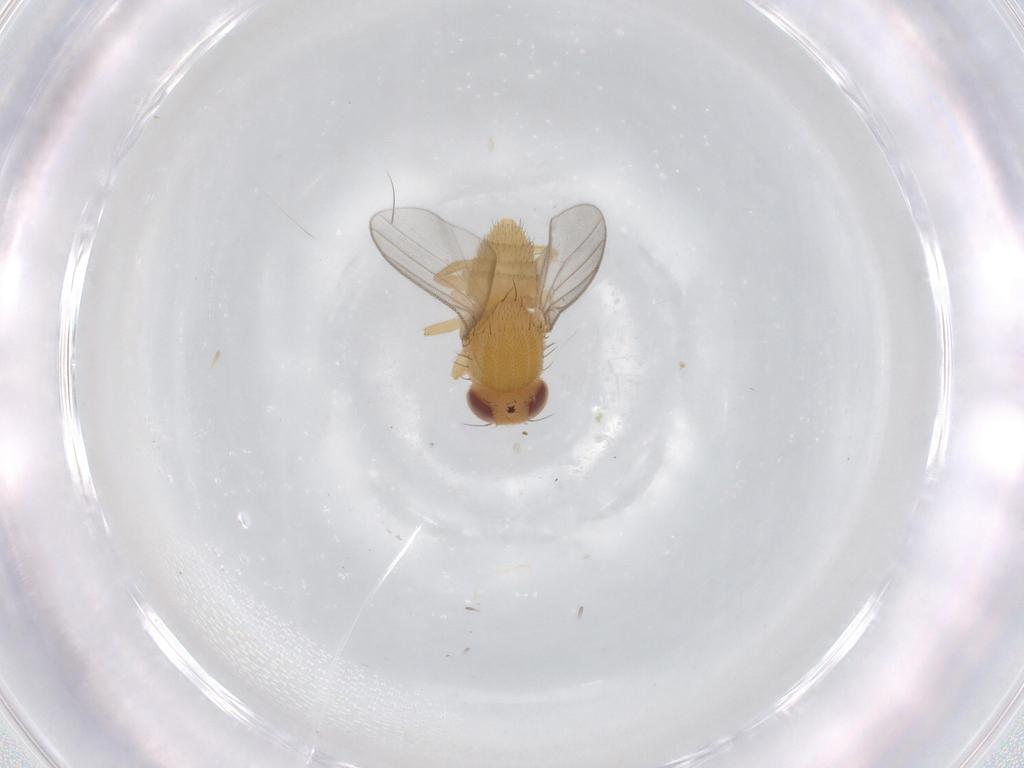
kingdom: Animalia
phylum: Arthropoda
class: Insecta
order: Diptera
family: Chloropidae
